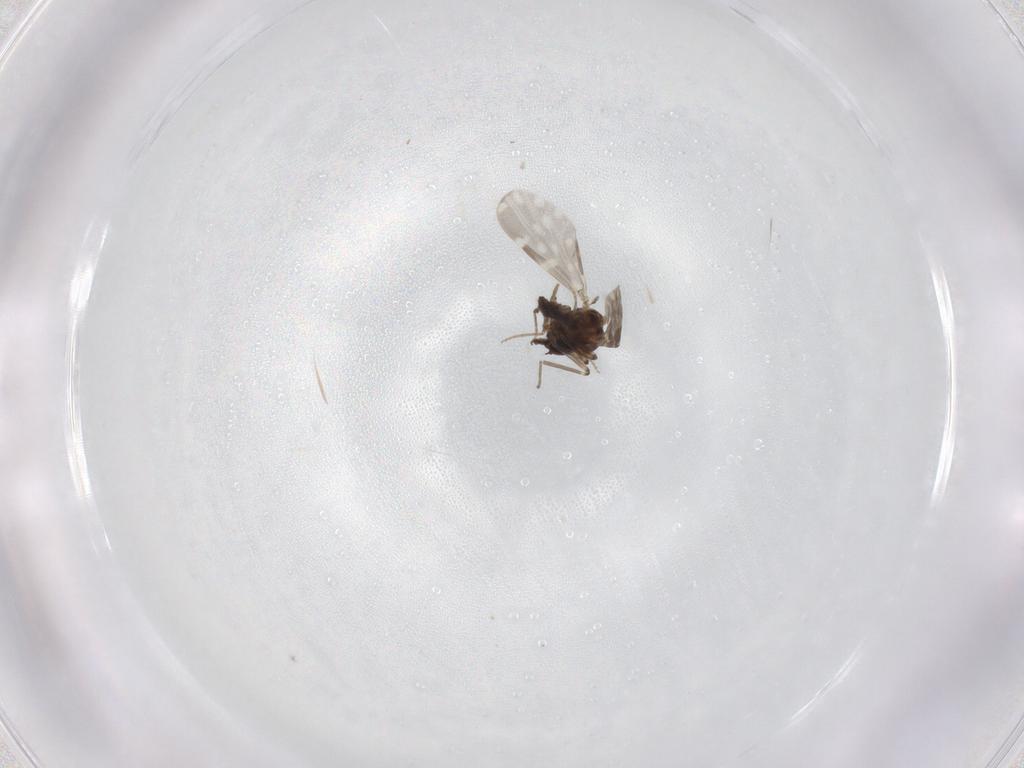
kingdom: Animalia
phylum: Arthropoda
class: Insecta
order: Diptera
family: Ceratopogonidae
